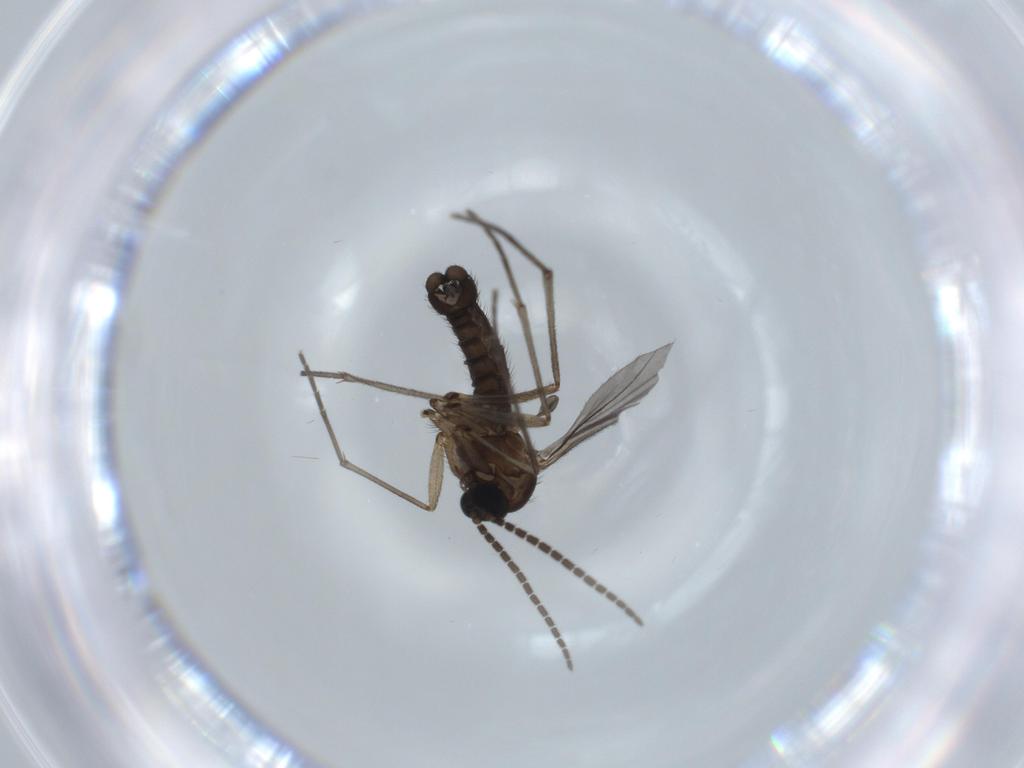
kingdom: Animalia
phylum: Arthropoda
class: Insecta
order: Diptera
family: Sciaridae
